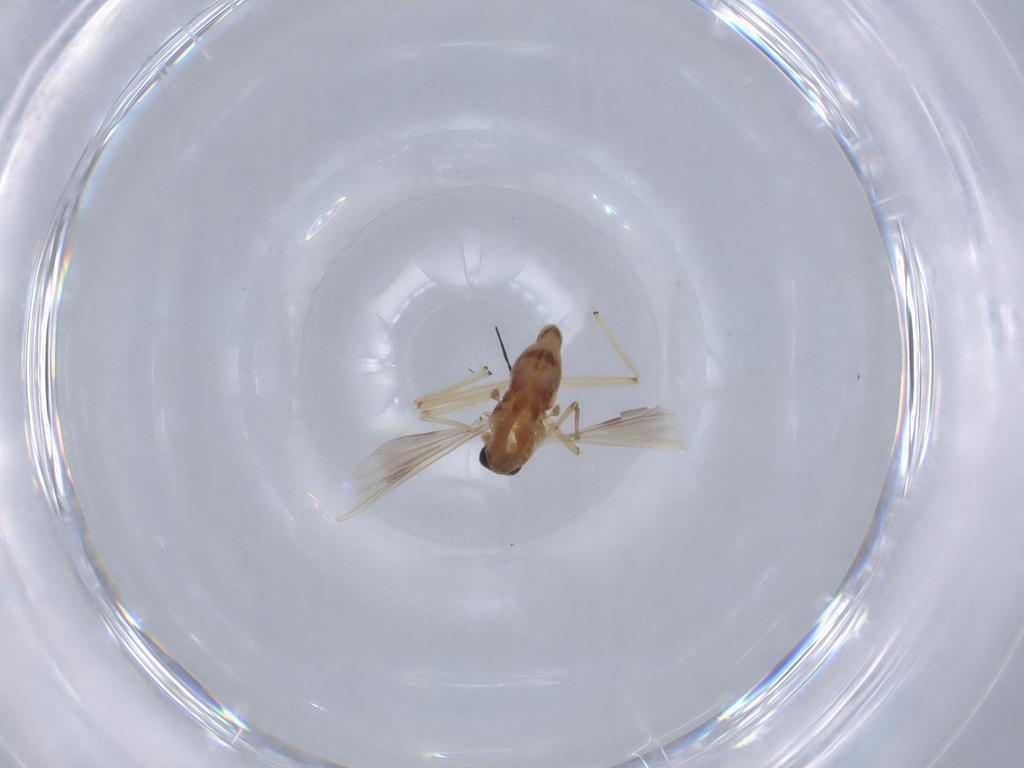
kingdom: Animalia
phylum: Arthropoda
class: Insecta
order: Diptera
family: Chironomidae
